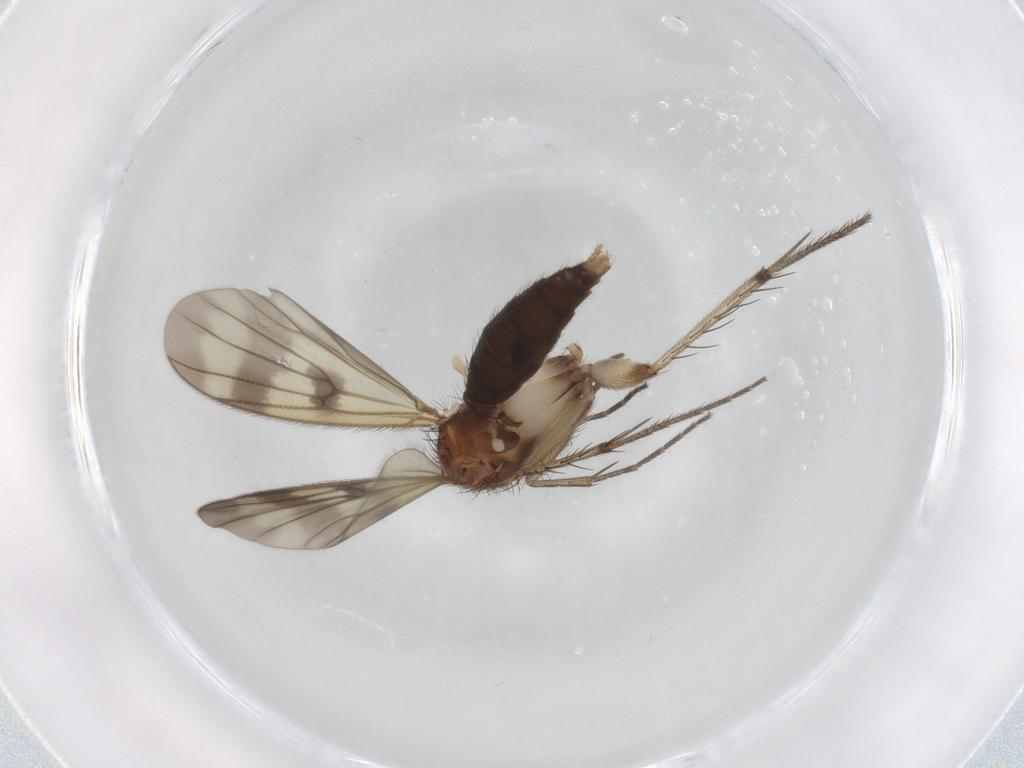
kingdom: Animalia
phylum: Arthropoda
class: Insecta
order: Diptera
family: Mycetophilidae
